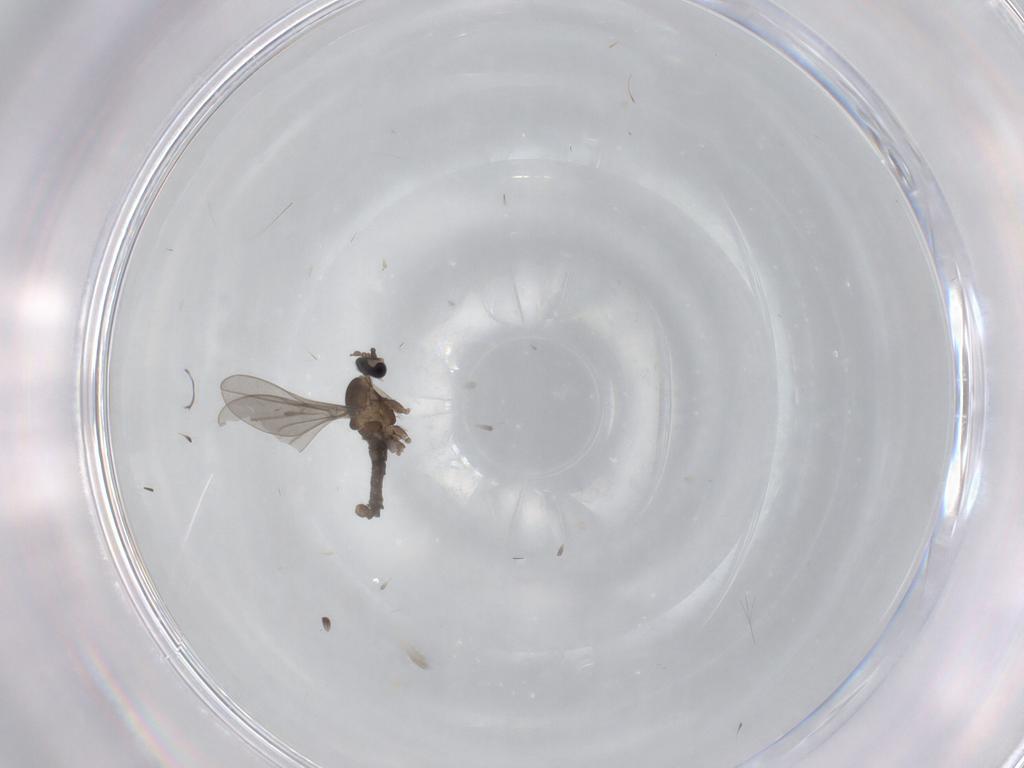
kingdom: Animalia
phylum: Arthropoda
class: Insecta
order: Diptera
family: Cecidomyiidae
